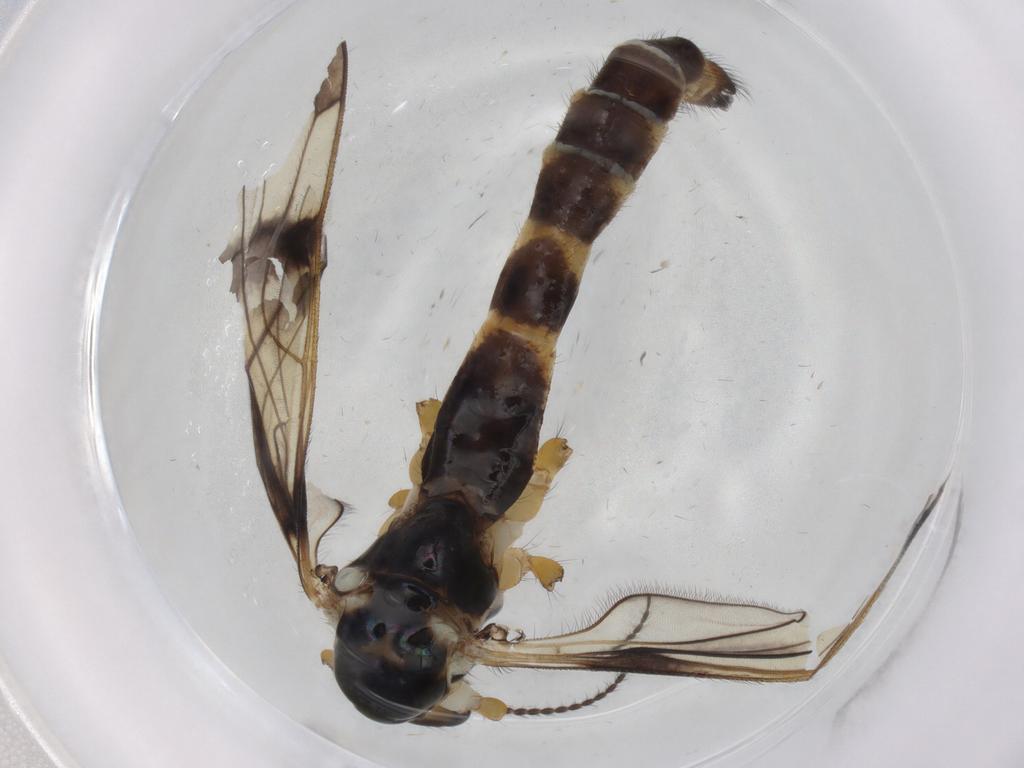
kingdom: Animalia
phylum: Arthropoda
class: Insecta
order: Diptera
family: Limoniidae
